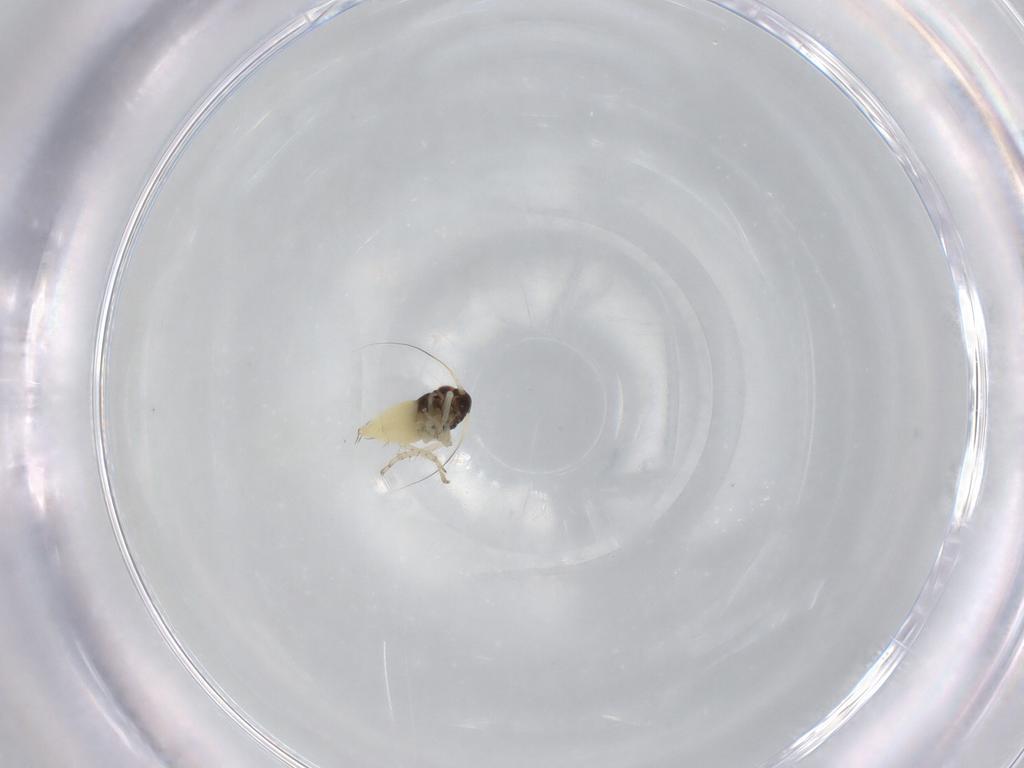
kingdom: Animalia
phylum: Arthropoda
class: Insecta
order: Hemiptera
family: Cicadellidae
